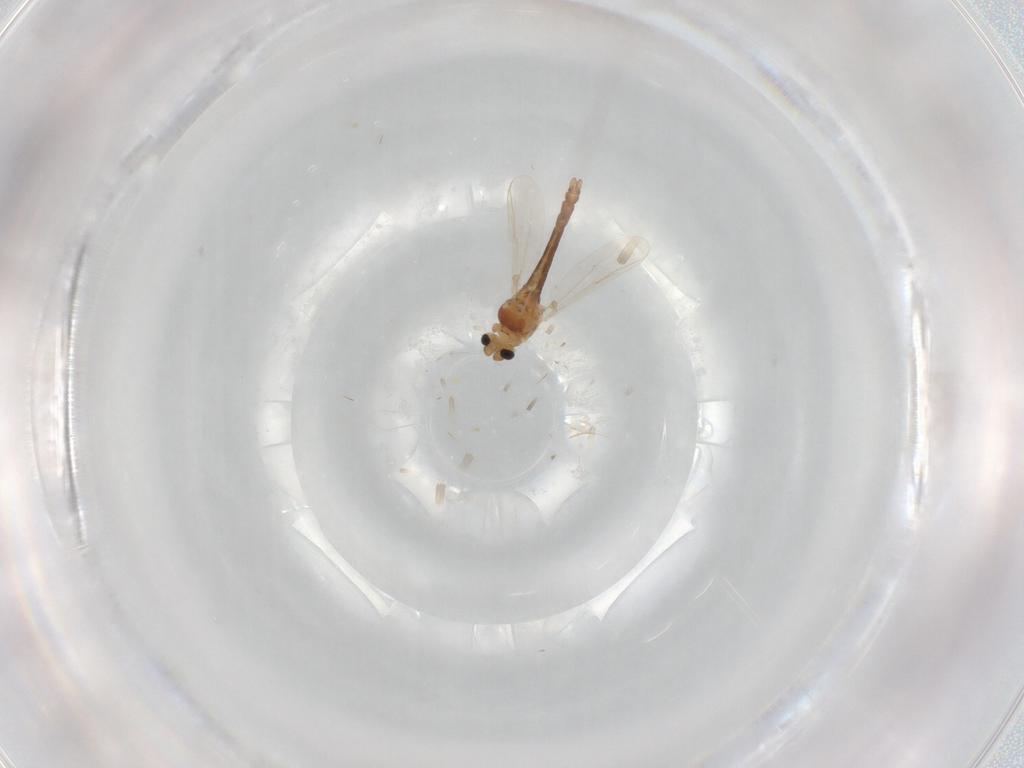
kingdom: Animalia
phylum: Arthropoda
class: Insecta
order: Diptera
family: Chironomidae
